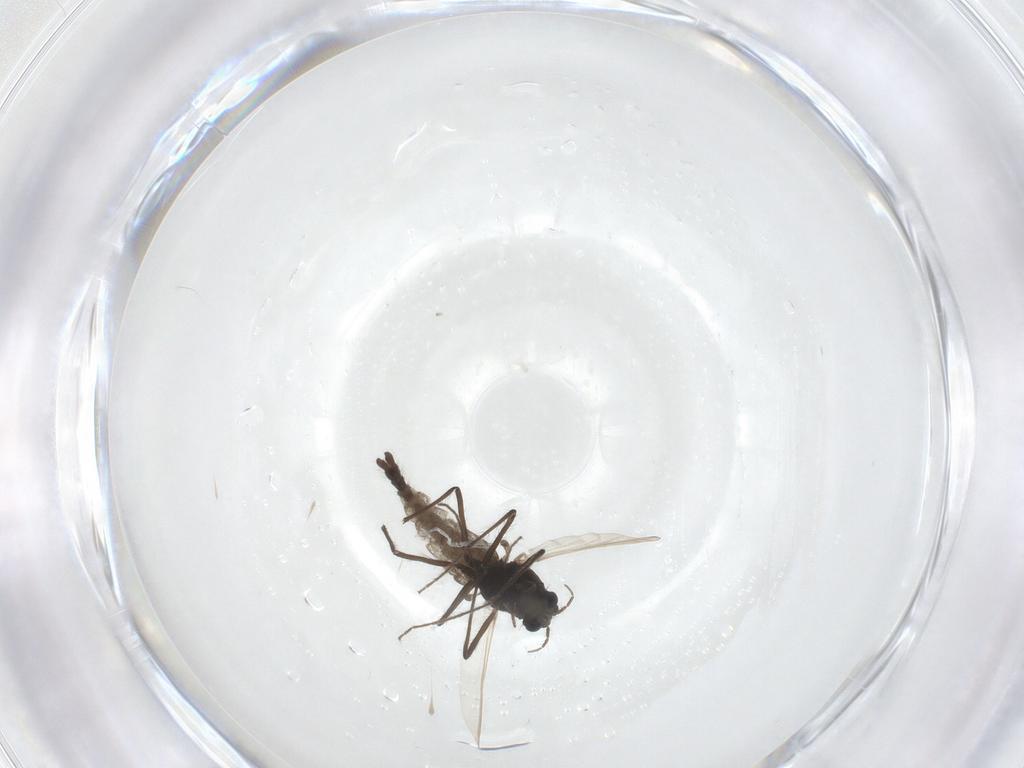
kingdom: Animalia
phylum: Arthropoda
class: Insecta
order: Diptera
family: Chironomidae
